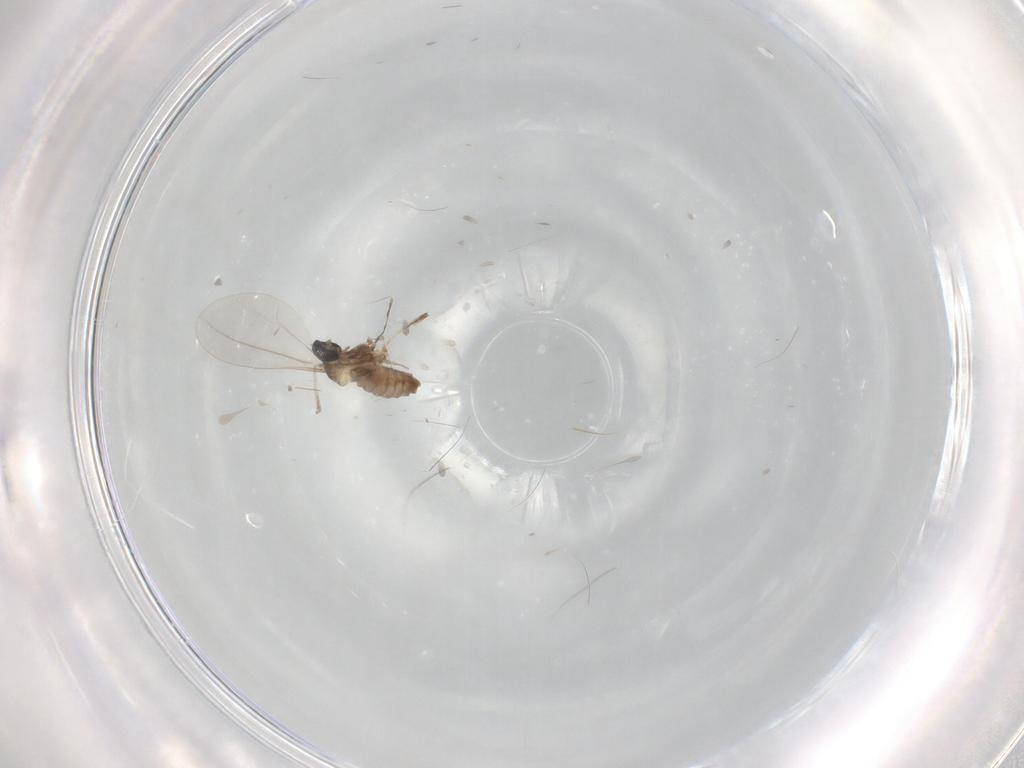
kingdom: Animalia
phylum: Arthropoda
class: Insecta
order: Diptera
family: Cecidomyiidae
